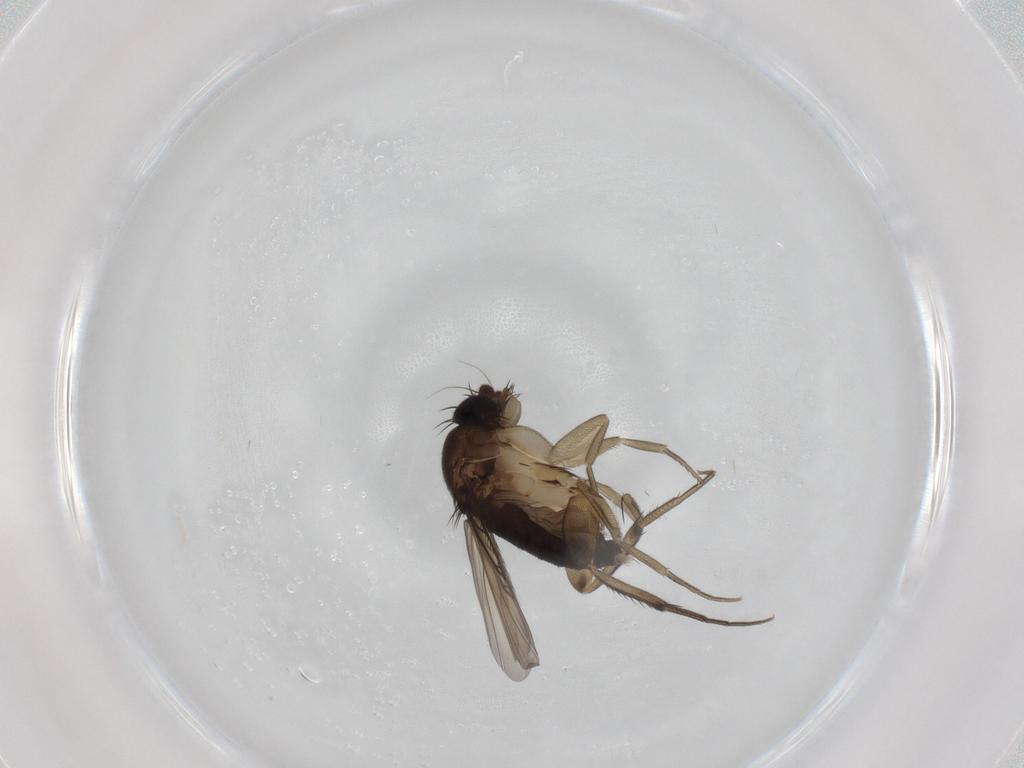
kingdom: Animalia
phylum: Arthropoda
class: Insecta
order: Diptera
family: Phoridae
